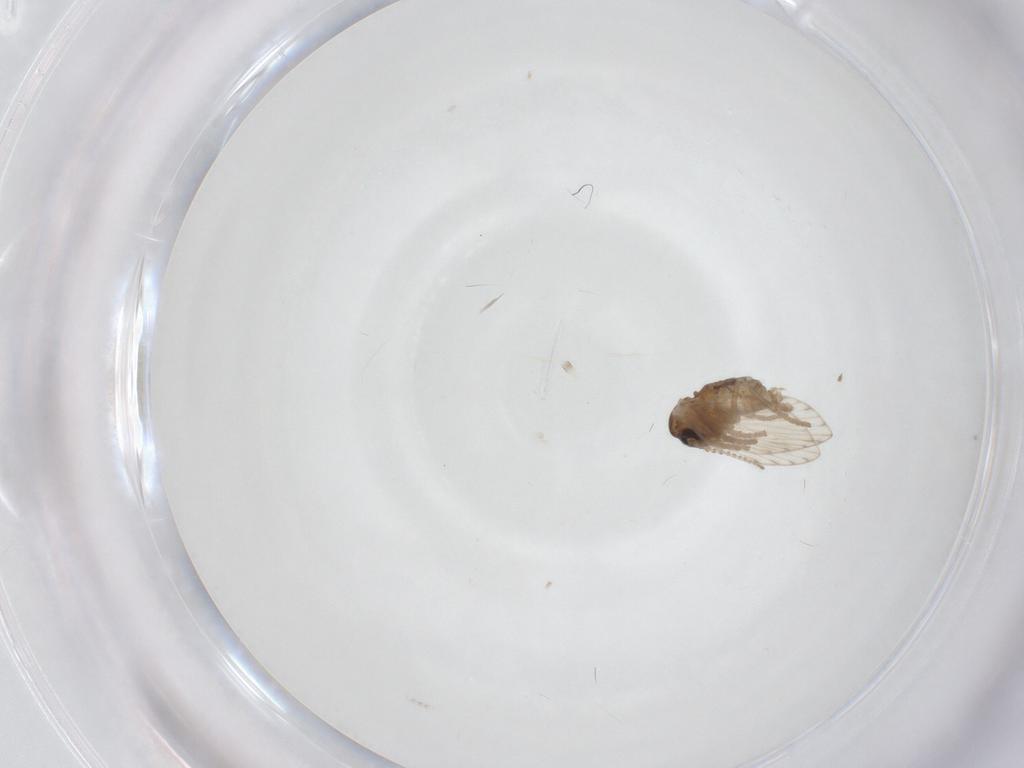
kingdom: Animalia
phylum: Arthropoda
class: Insecta
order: Diptera
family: Psychodidae
